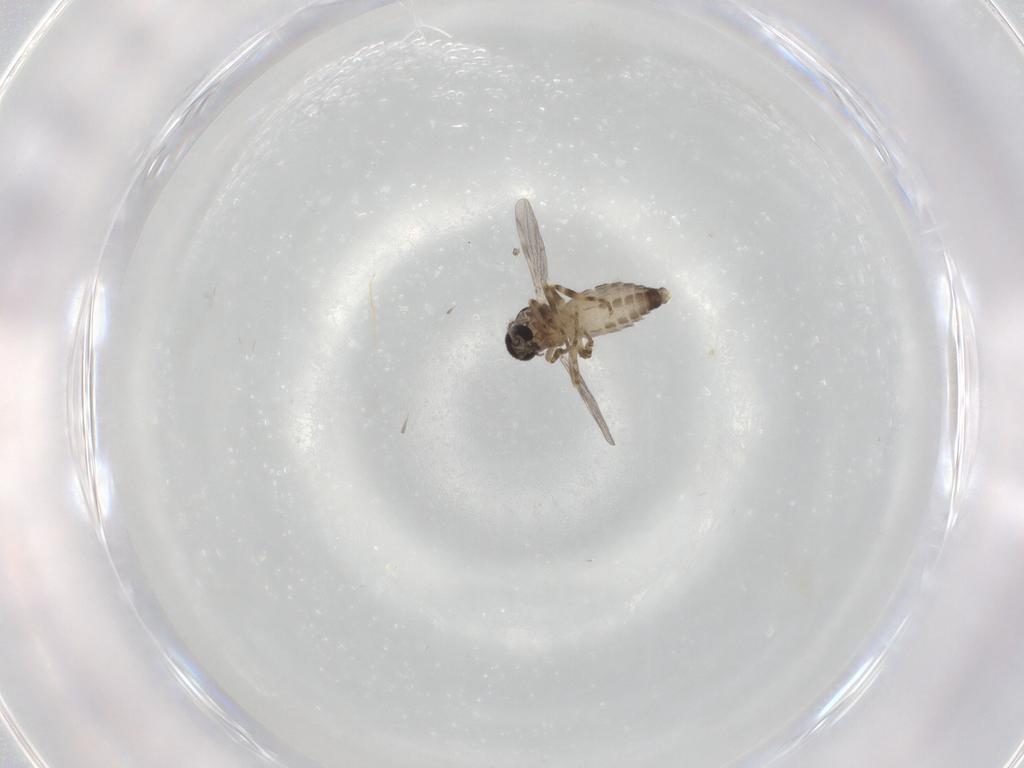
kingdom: Animalia
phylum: Arthropoda
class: Insecta
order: Diptera
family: Ceratopogonidae
